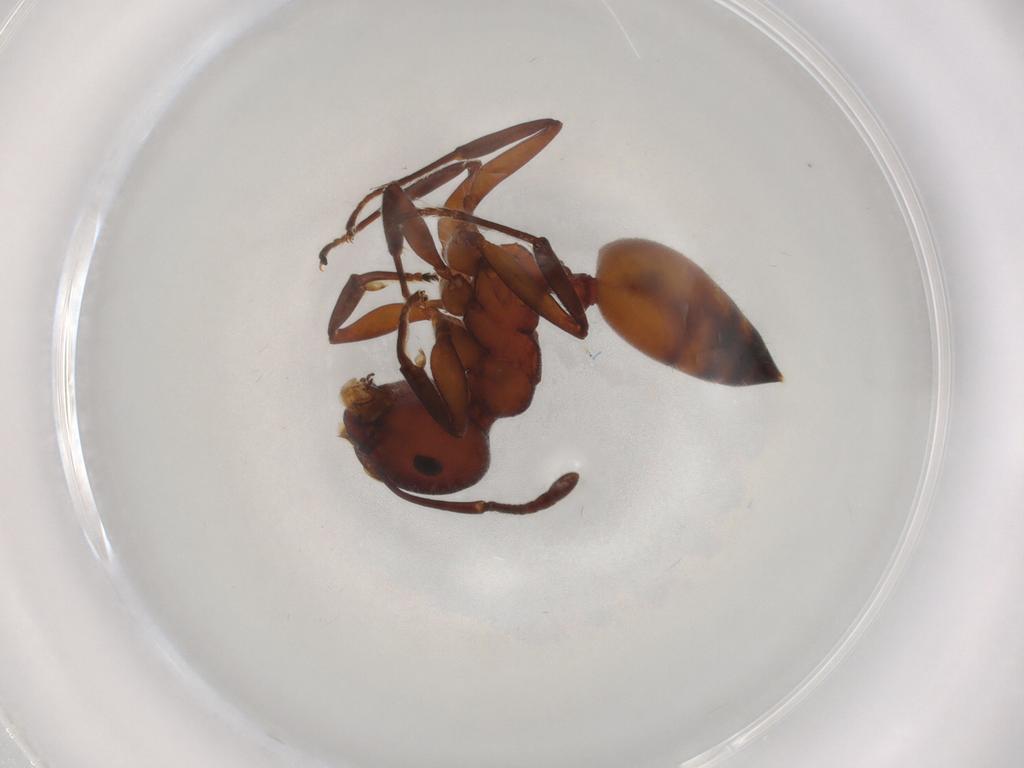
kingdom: Animalia
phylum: Arthropoda
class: Insecta
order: Hymenoptera
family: Formicidae
